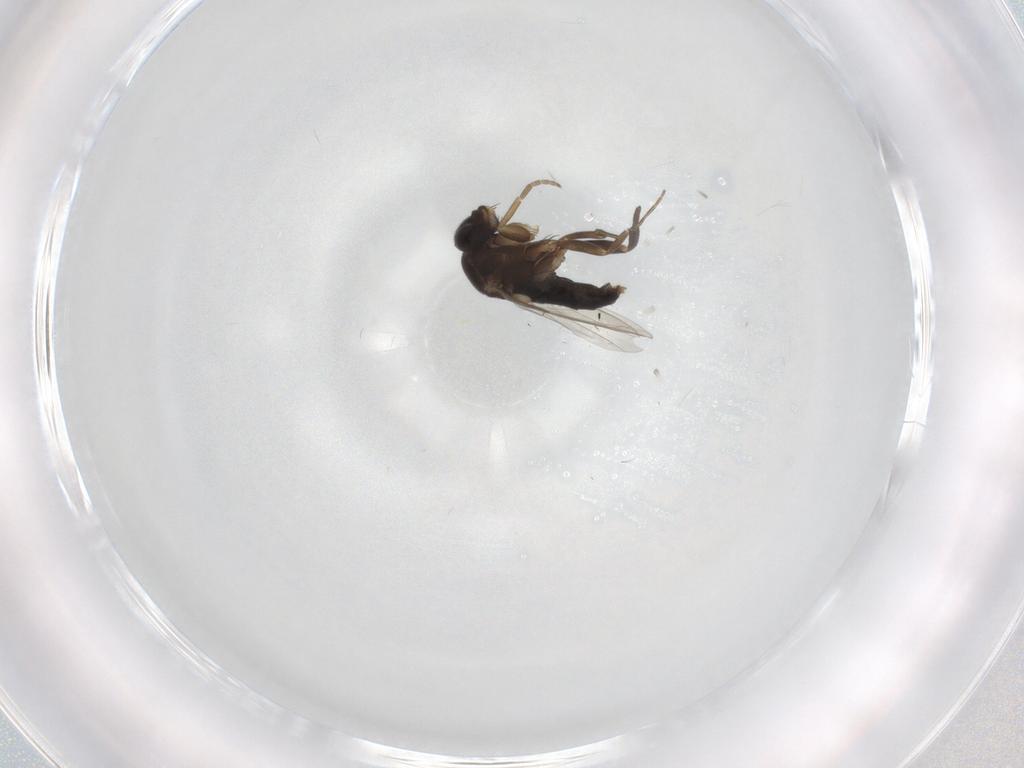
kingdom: Animalia
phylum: Arthropoda
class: Insecta
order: Diptera
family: Phoridae
